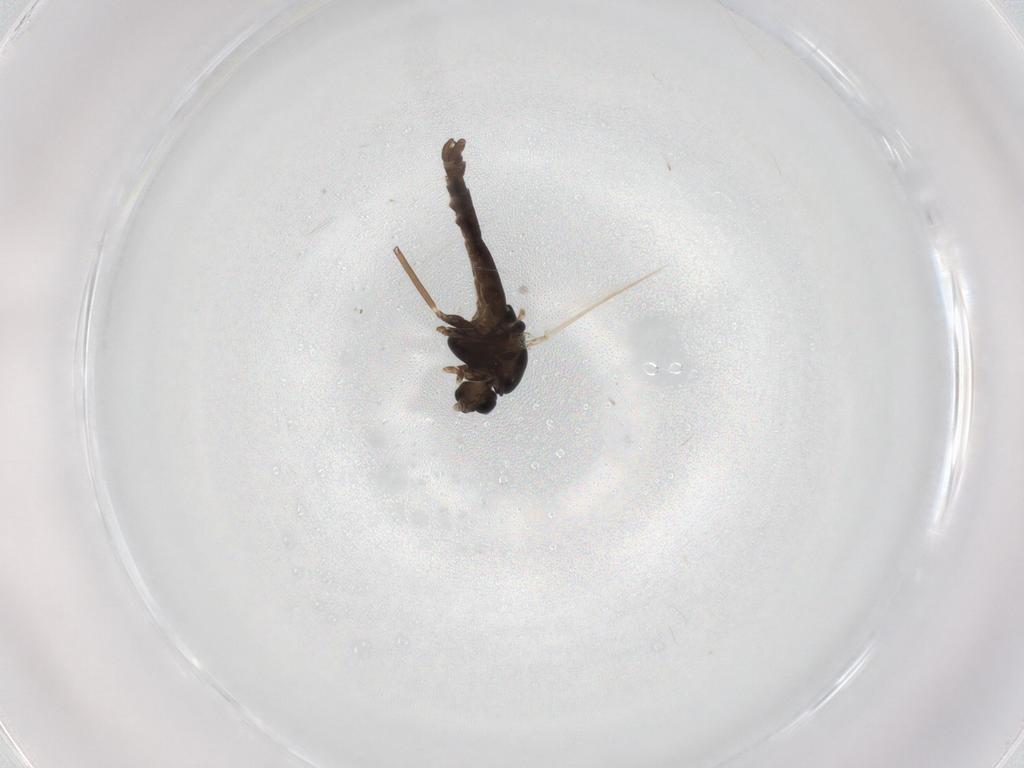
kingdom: Animalia
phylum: Arthropoda
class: Insecta
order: Diptera
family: Chironomidae
